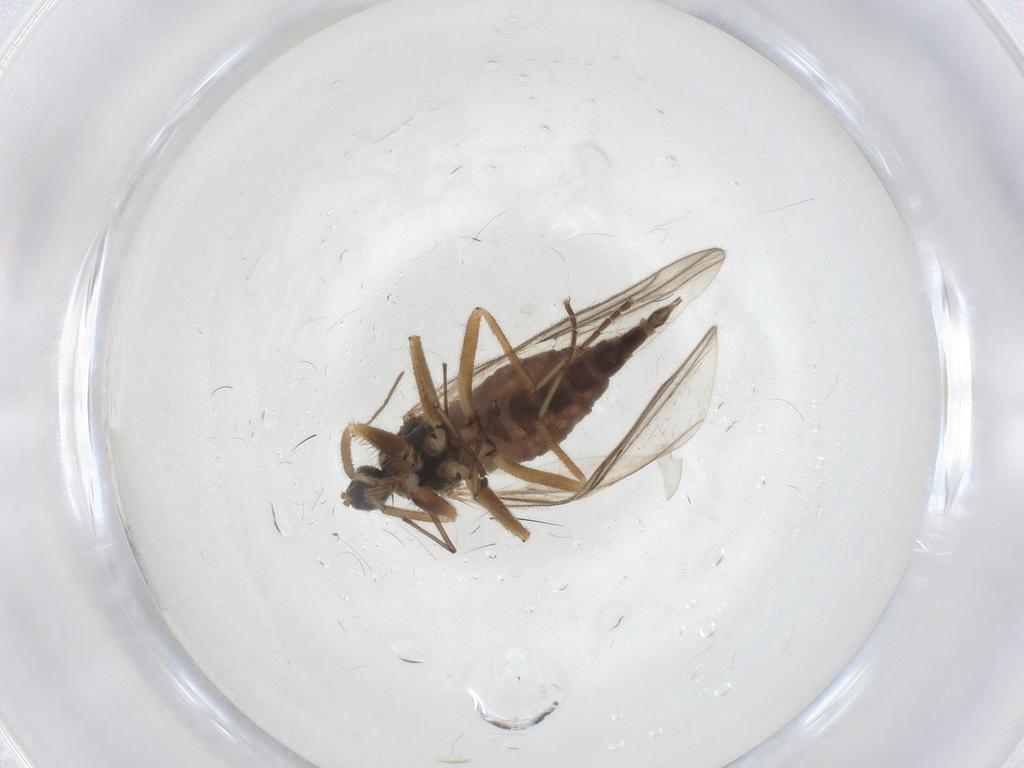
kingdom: Animalia
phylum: Arthropoda
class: Insecta
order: Diptera
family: Hybotidae
